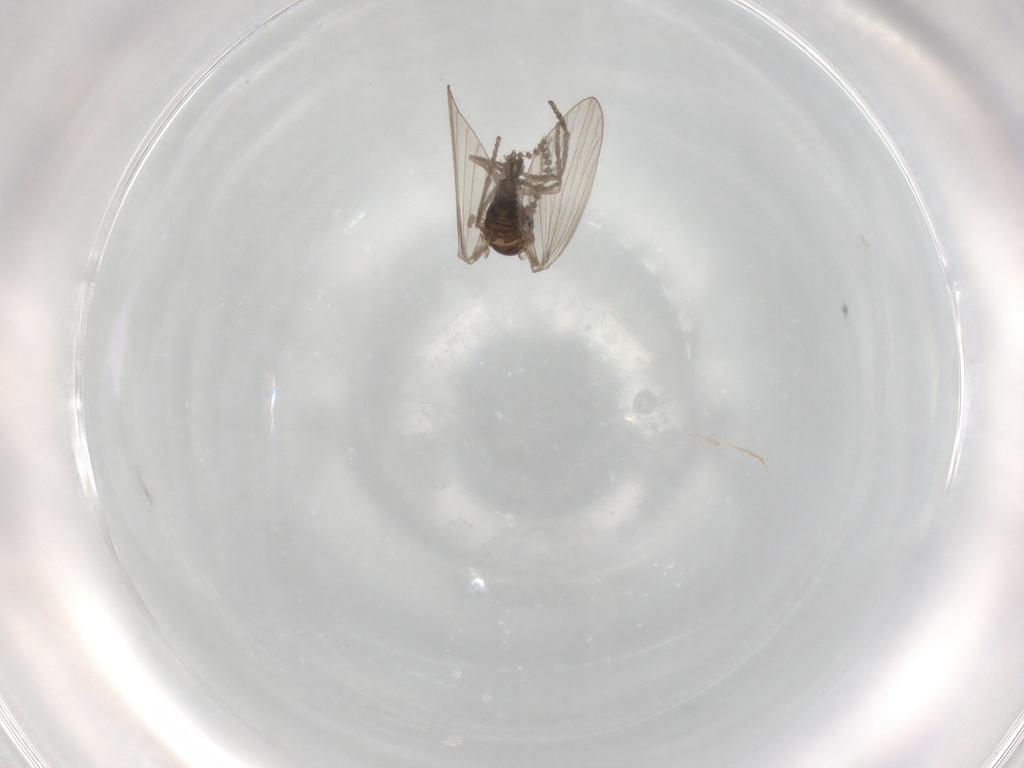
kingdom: Animalia
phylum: Arthropoda
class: Insecta
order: Diptera
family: Psychodidae
